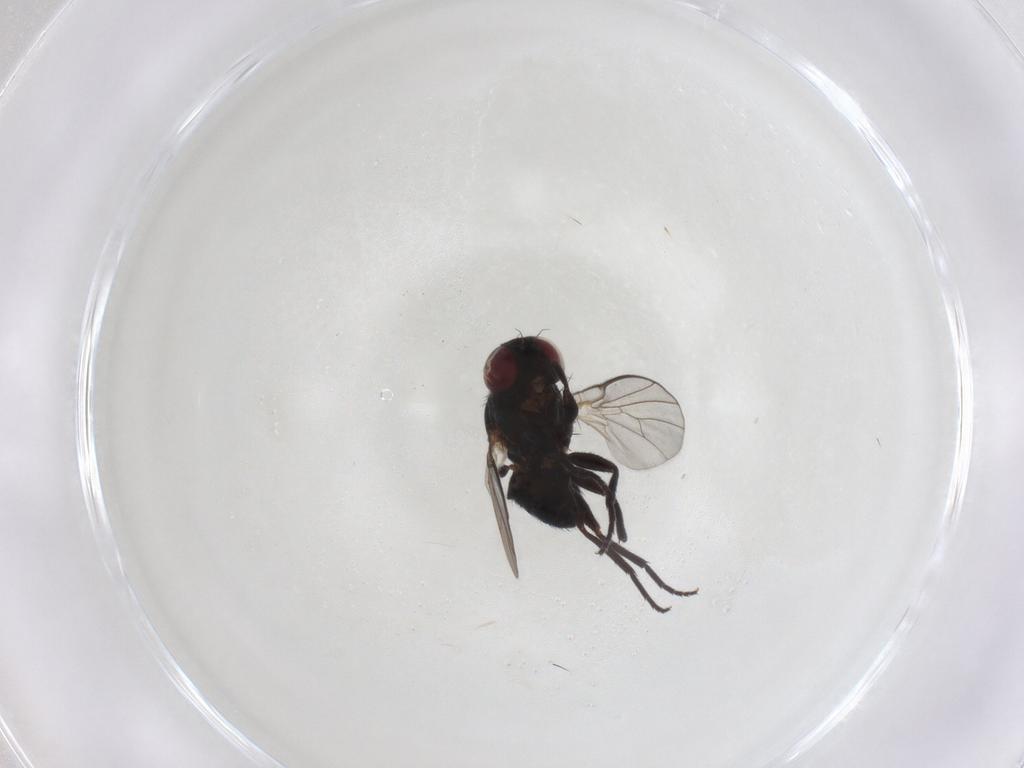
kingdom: Animalia
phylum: Arthropoda
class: Insecta
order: Diptera
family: Agromyzidae
